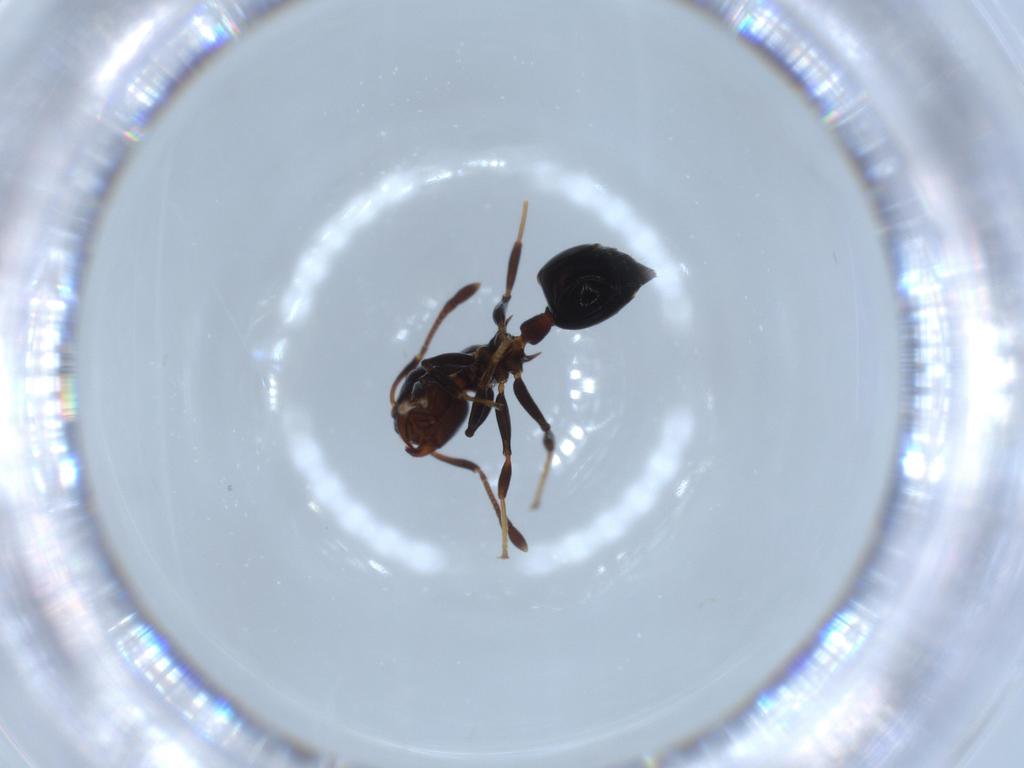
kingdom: Animalia
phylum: Arthropoda
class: Insecta
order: Hymenoptera
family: Formicidae
